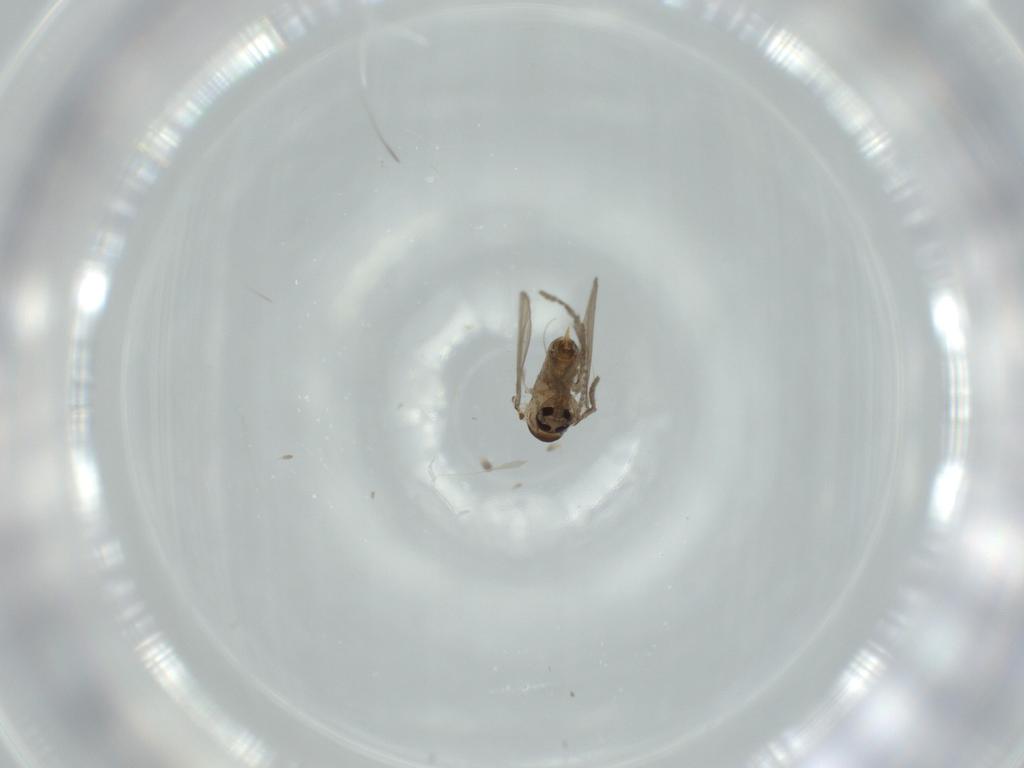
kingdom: Animalia
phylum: Arthropoda
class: Insecta
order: Diptera
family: Psychodidae
